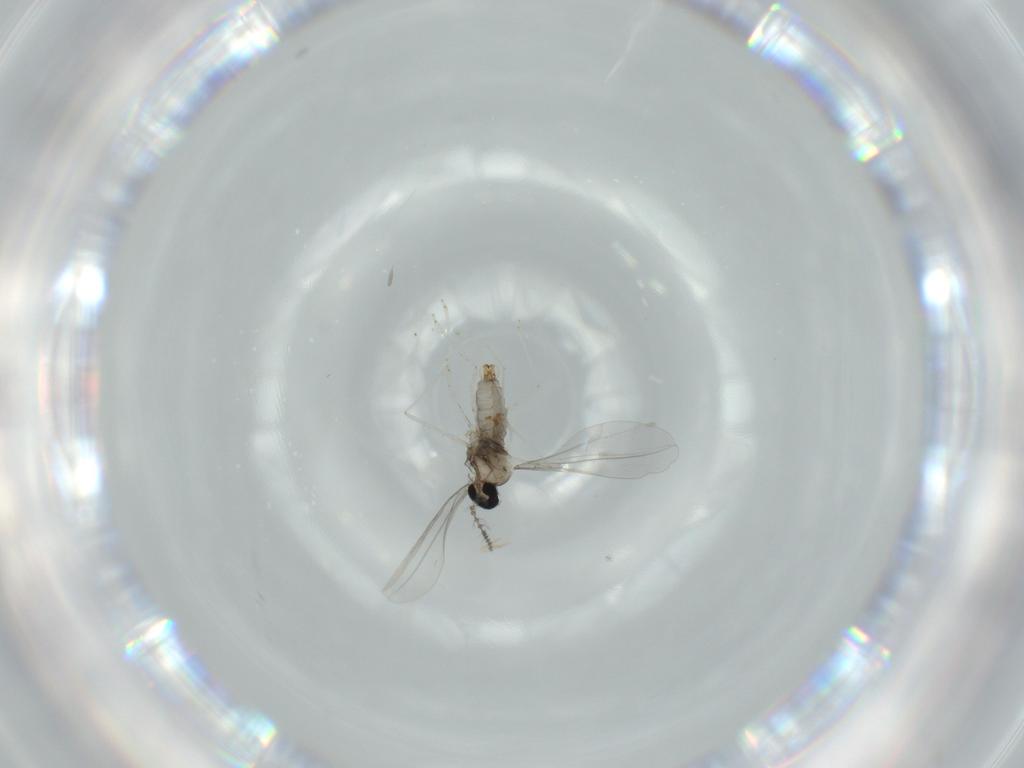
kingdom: Animalia
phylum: Arthropoda
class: Insecta
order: Diptera
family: Cecidomyiidae
